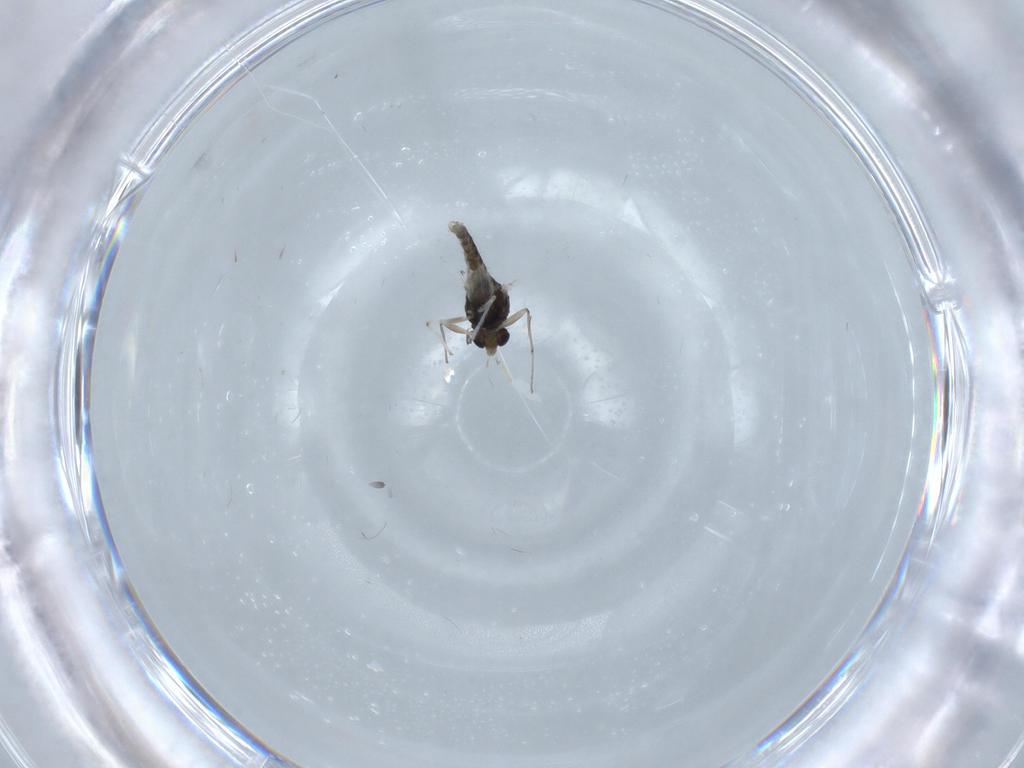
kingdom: Animalia
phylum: Arthropoda
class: Insecta
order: Diptera
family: Chironomidae
